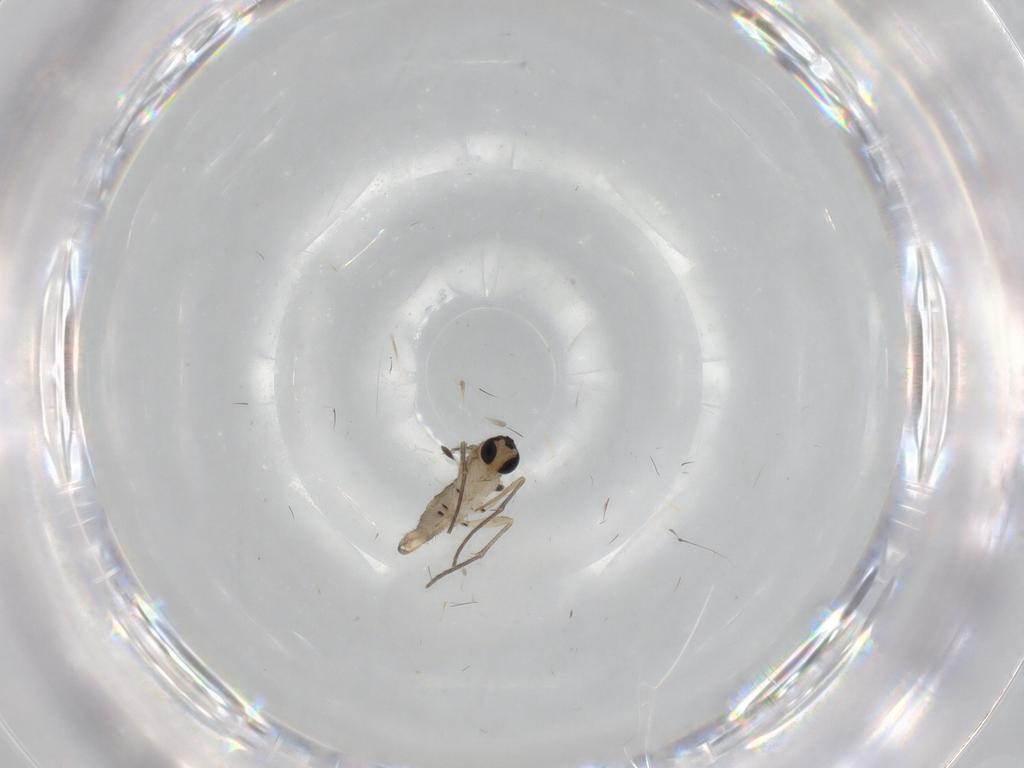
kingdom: Animalia
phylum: Arthropoda
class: Insecta
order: Diptera
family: Sciaridae
